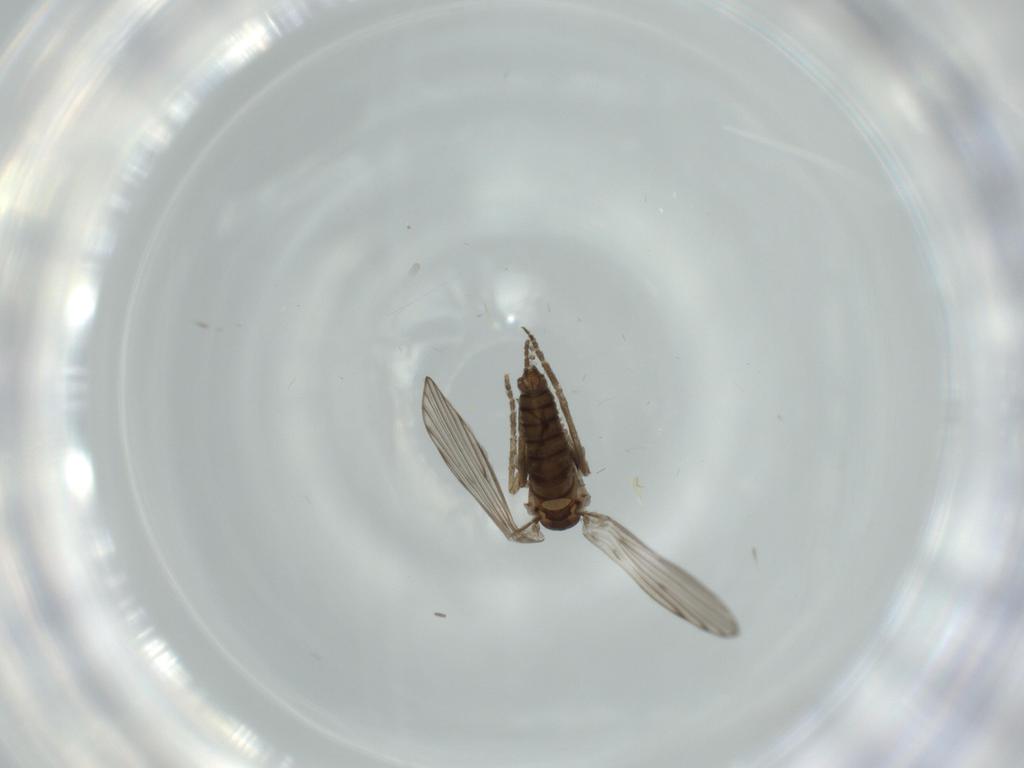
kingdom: Animalia
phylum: Arthropoda
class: Insecta
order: Diptera
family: Psychodidae
